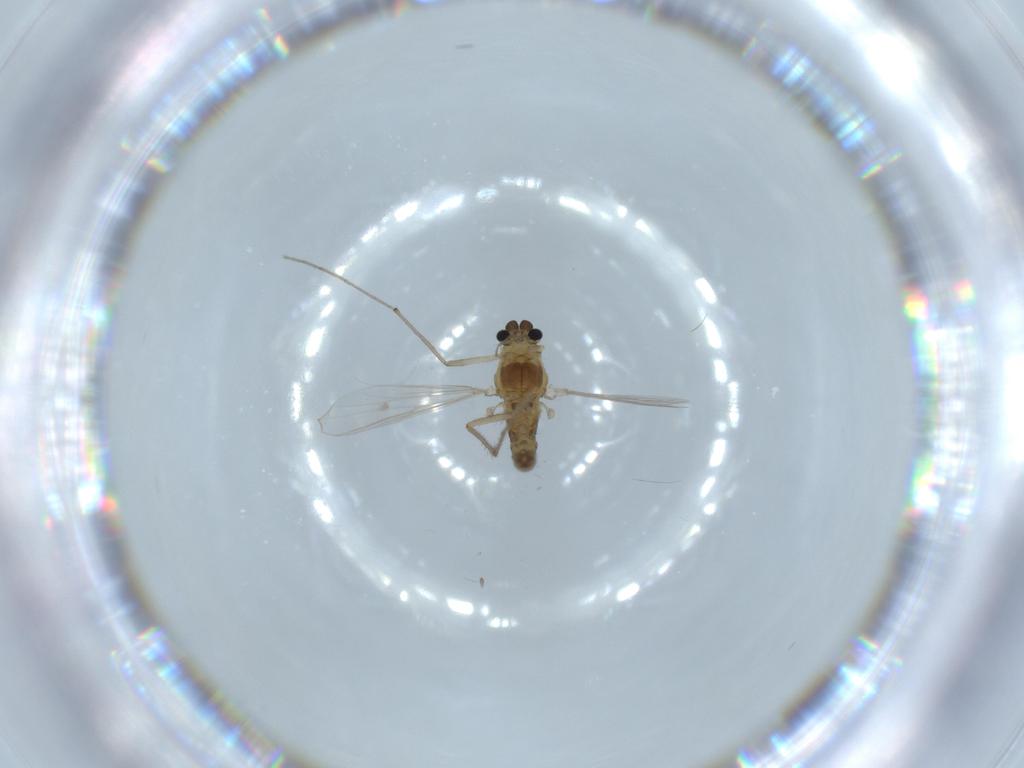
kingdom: Animalia
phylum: Arthropoda
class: Insecta
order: Diptera
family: Chironomidae
